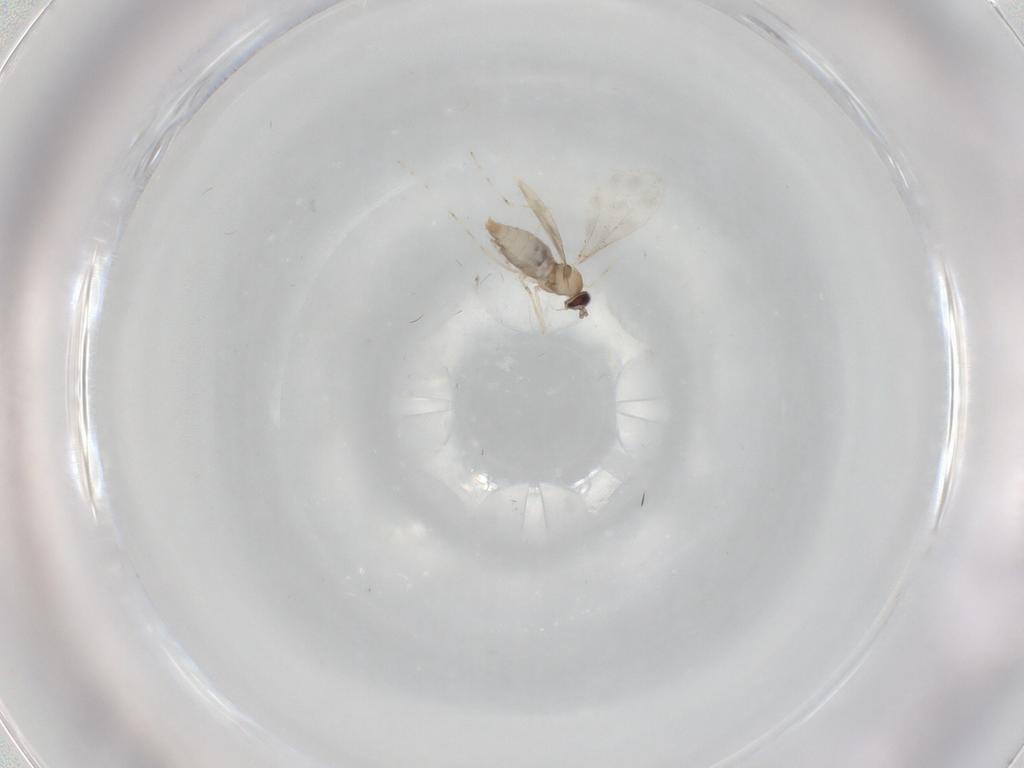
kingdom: Animalia
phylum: Arthropoda
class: Insecta
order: Diptera
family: Cecidomyiidae
